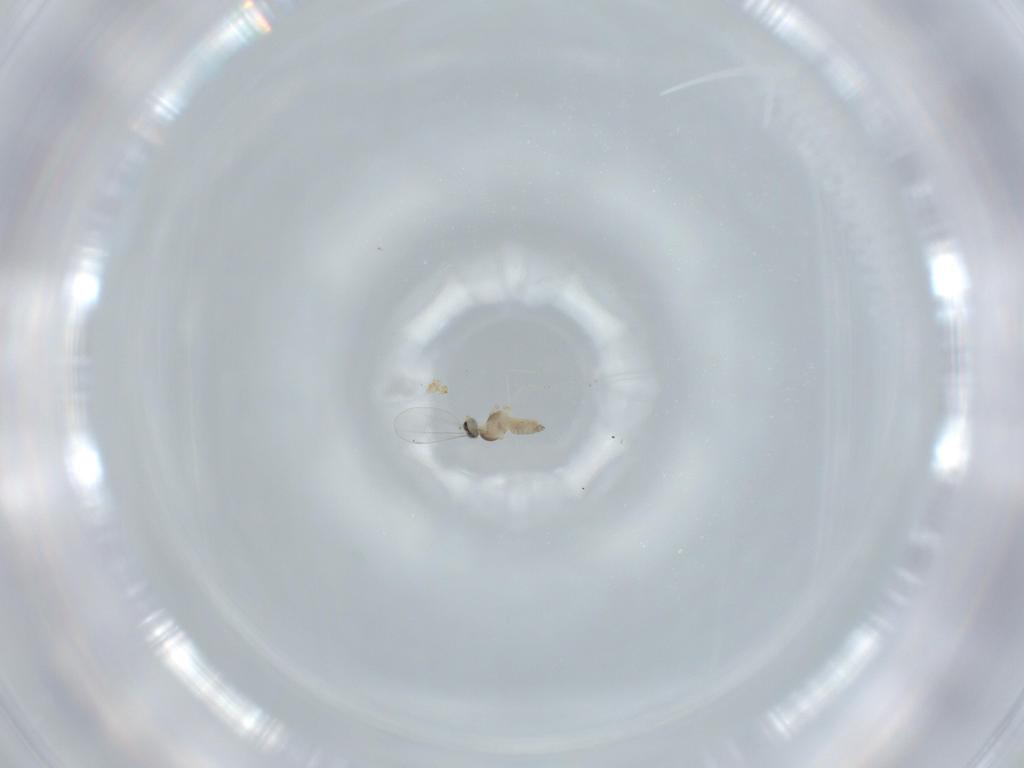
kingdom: Animalia
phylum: Arthropoda
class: Insecta
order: Diptera
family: Cecidomyiidae
